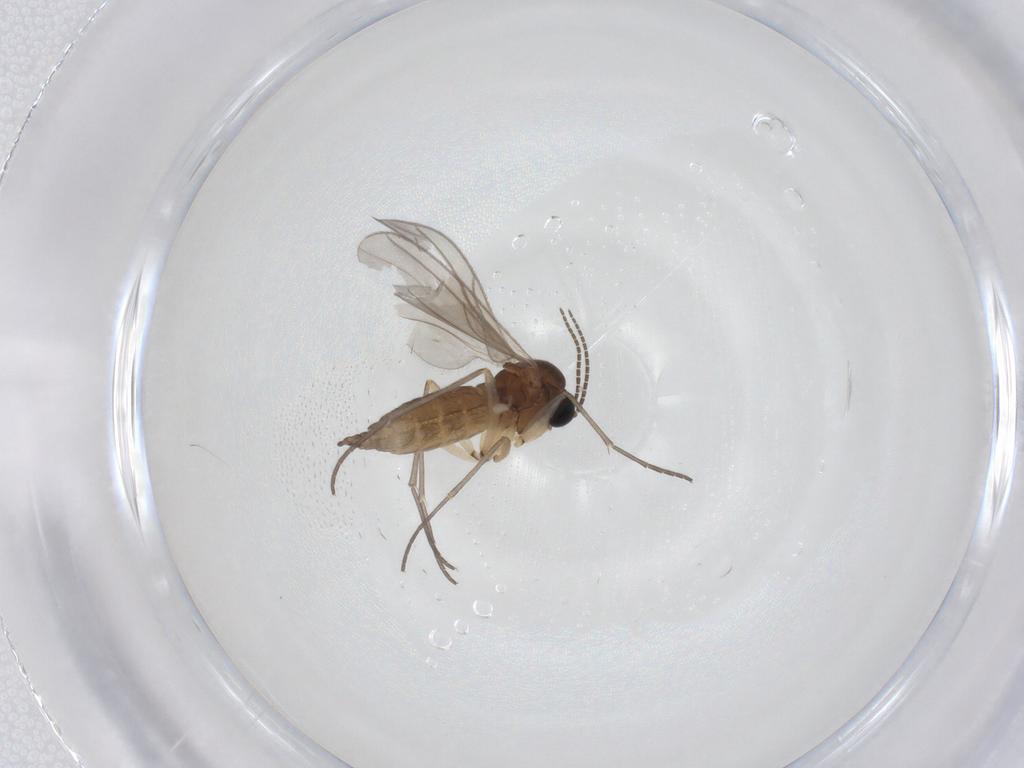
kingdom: Animalia
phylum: Arthropoda
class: Insecta
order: Diptera
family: Sciaridae
